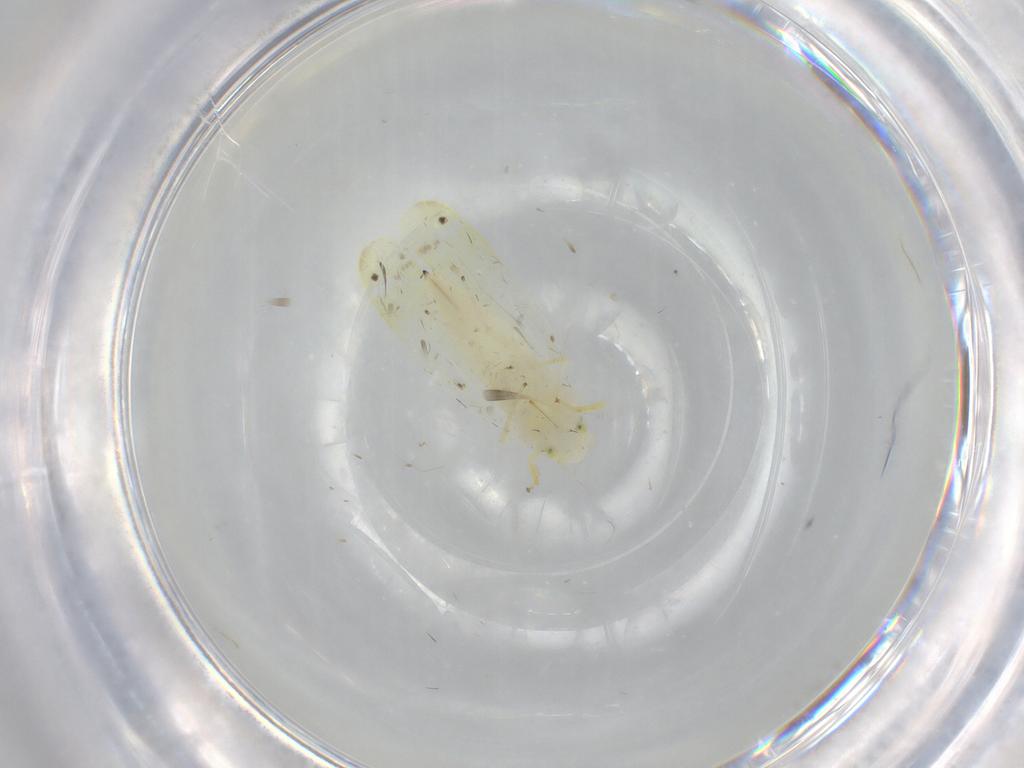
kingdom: Animalia
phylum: Arthropoda
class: Insecta
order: Hemiptera
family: Cicadellidae
